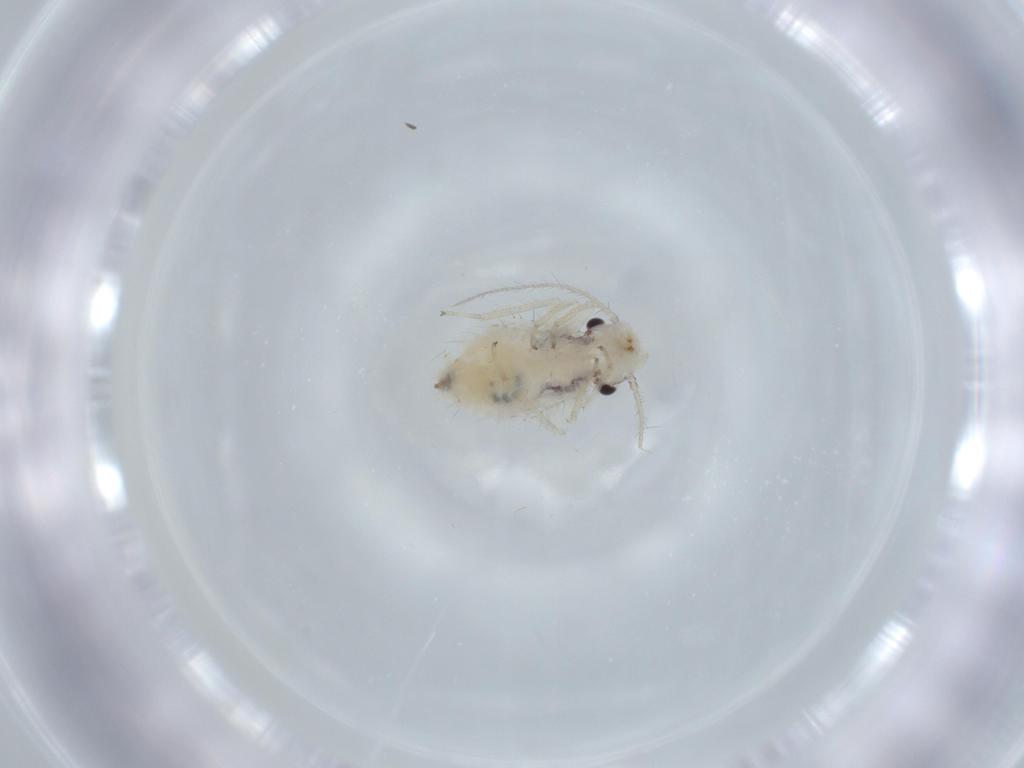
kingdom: Animalia
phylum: Arthropoda
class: Insecta
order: Psocodea
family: Pseudocaeciliidae
